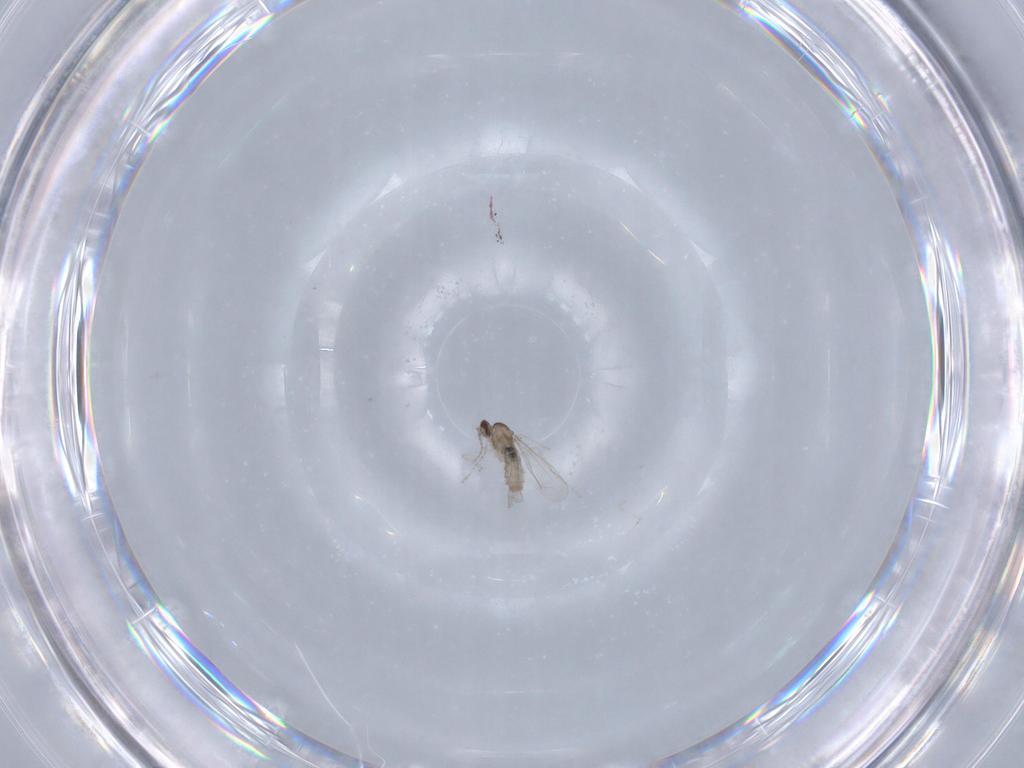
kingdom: Animalia
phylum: Arthropoda
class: Insecta
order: Diptera
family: Cecidomyiidae
